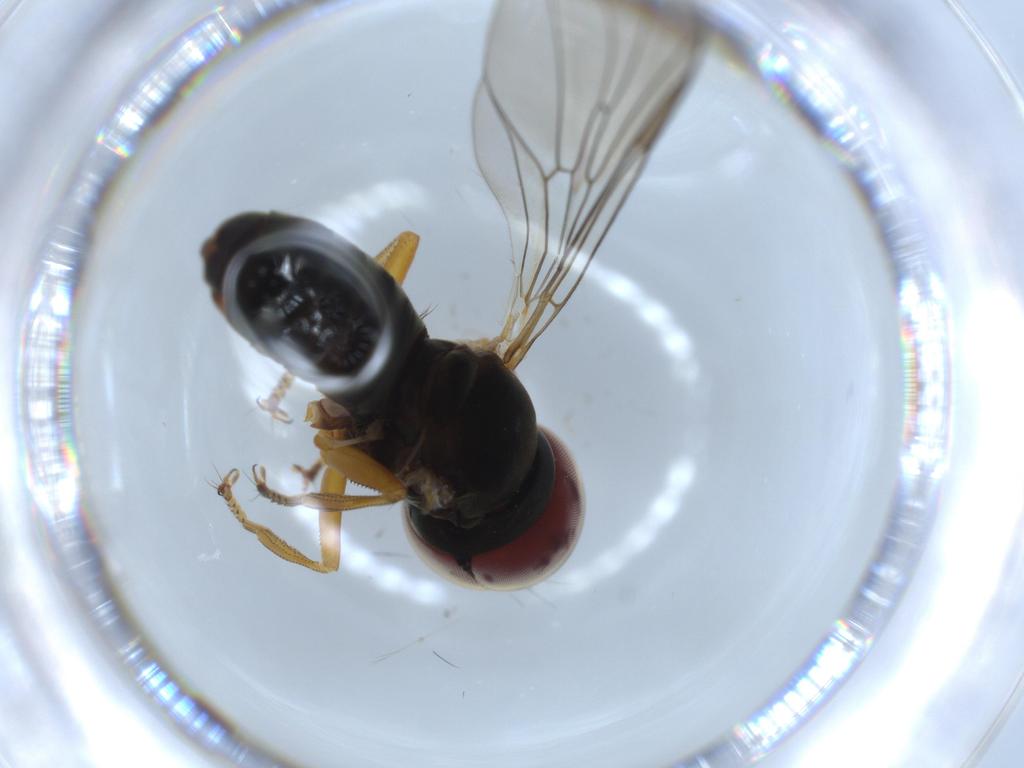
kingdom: Animalia
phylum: Arthropoda
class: Insecta
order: Diptera
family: Pipunculidae
